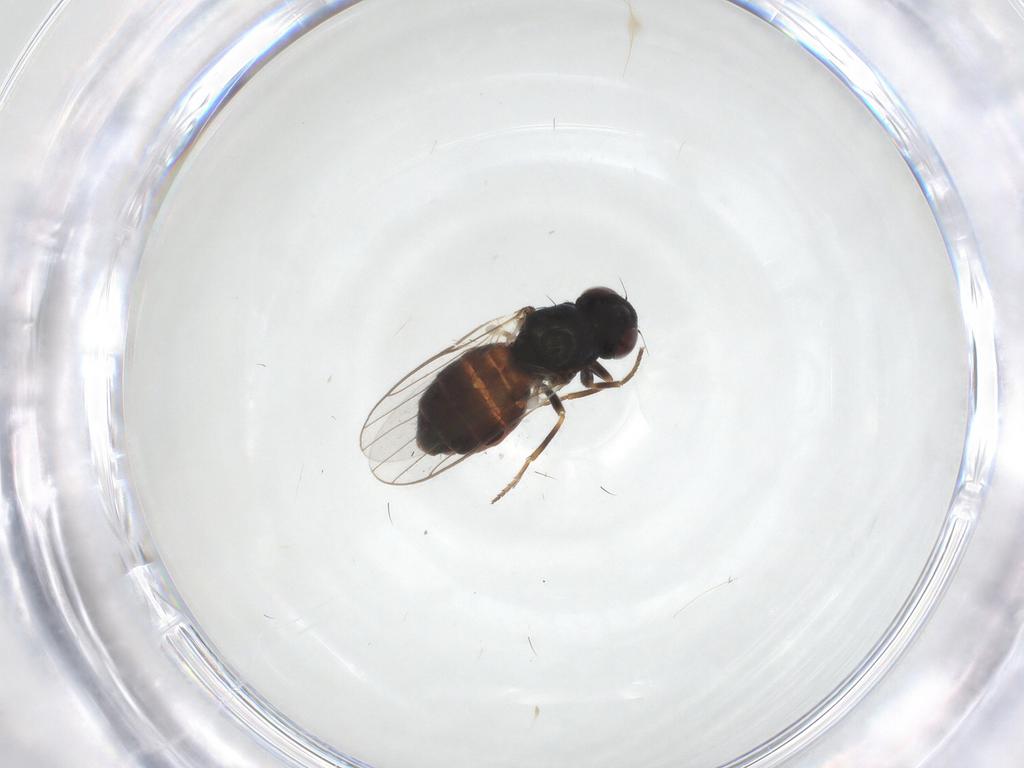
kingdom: Animalia
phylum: Arthropoda
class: Insecta
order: Diptera
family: Chloropidae
